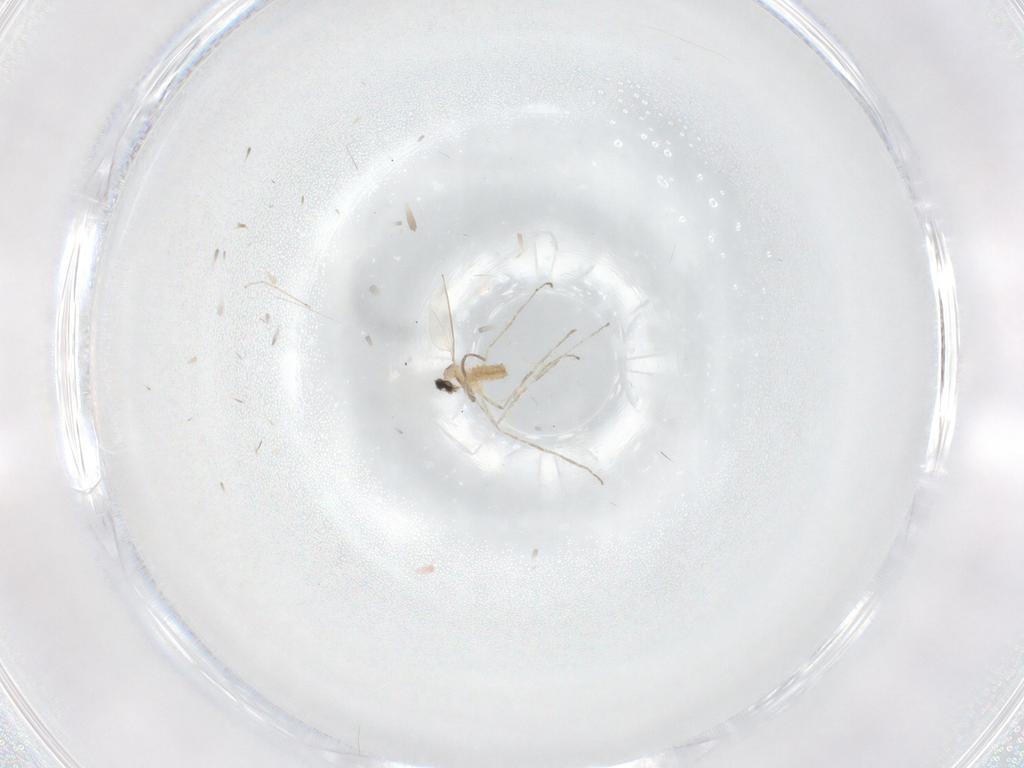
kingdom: Animalia
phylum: Arthropoda
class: Insecta
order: Diptera
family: Cecidomyiidae
